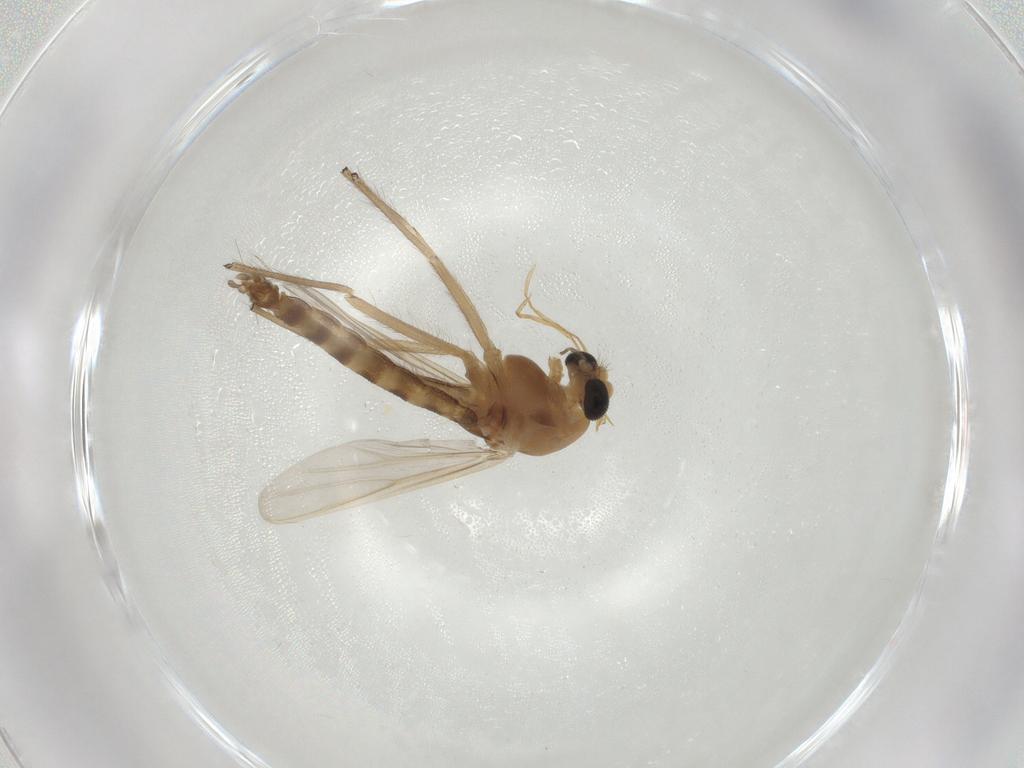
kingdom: Animalia
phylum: Arthropoda
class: Insecta
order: Diptera
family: Chironomidae
